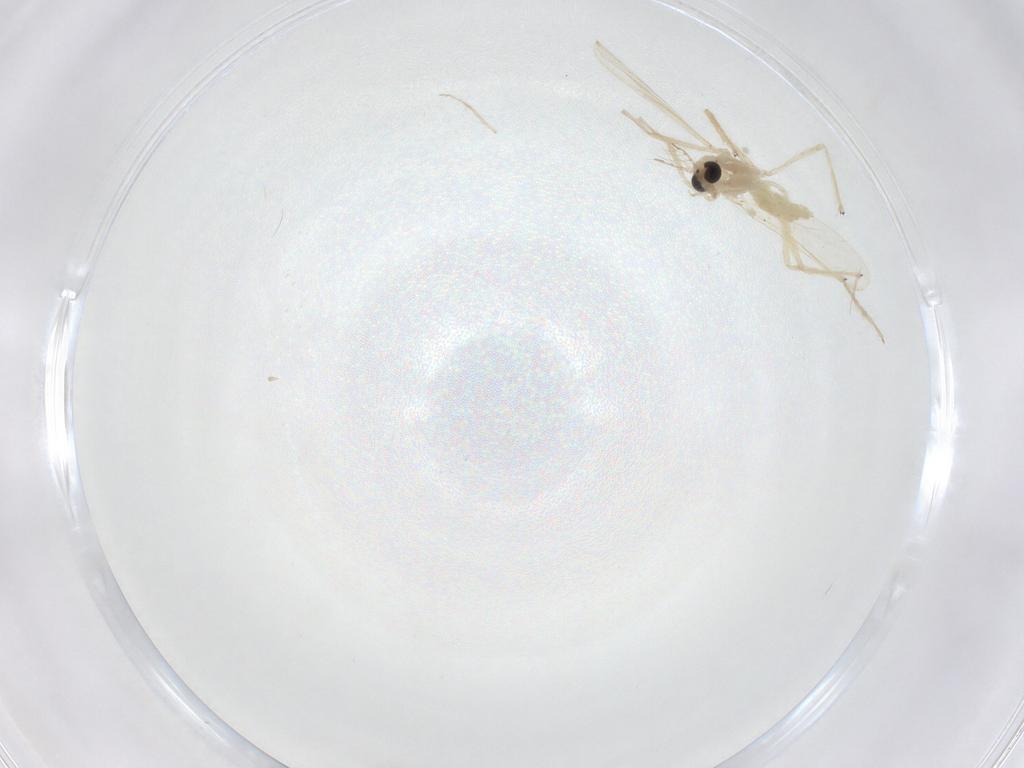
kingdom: Animalia
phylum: Arthropoda
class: Insecta
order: Diptera
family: Chironomidae
